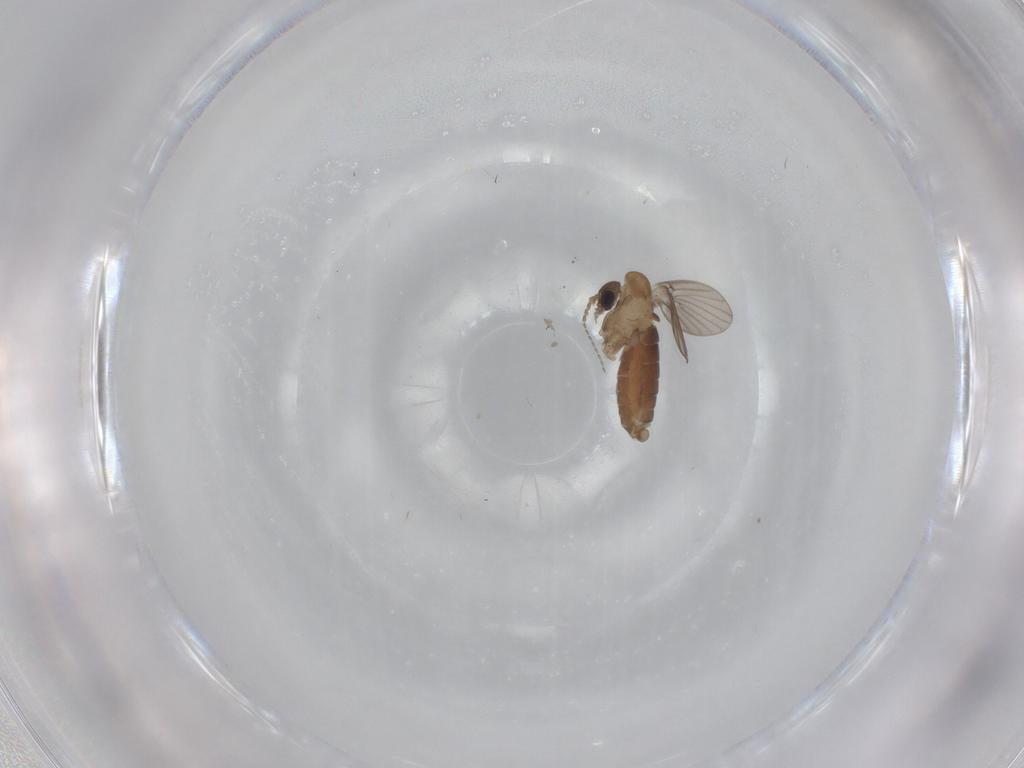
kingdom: Animalia
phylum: Arthropoda
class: Insecta
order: Diptera
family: Psychodidae
